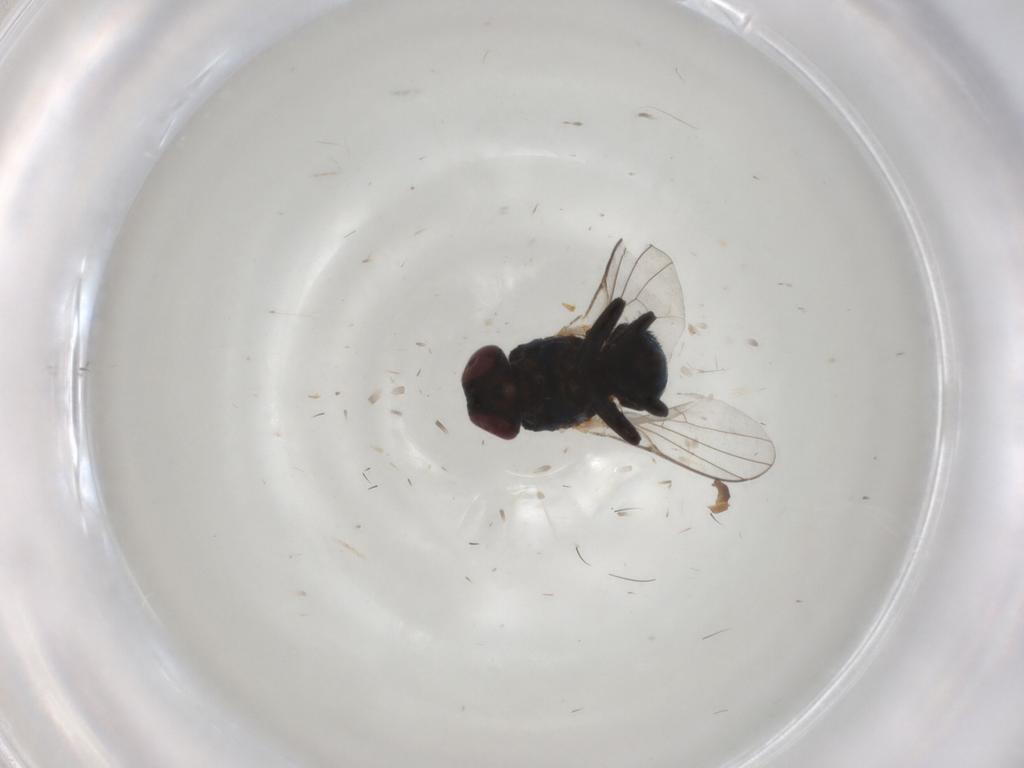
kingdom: Animalia
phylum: Arthropoda
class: Insecta
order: Diptera
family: Agromyzidae
